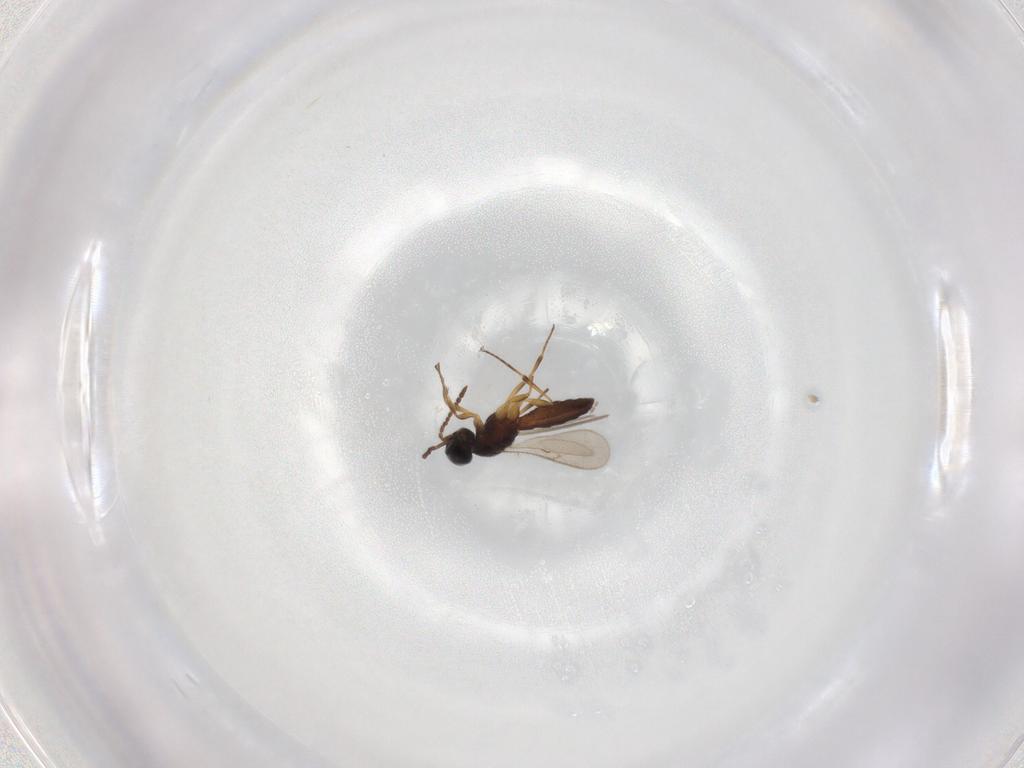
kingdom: Animalia
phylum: Arthropoda
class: Insecta
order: Hymenoptera
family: Scelionidae
